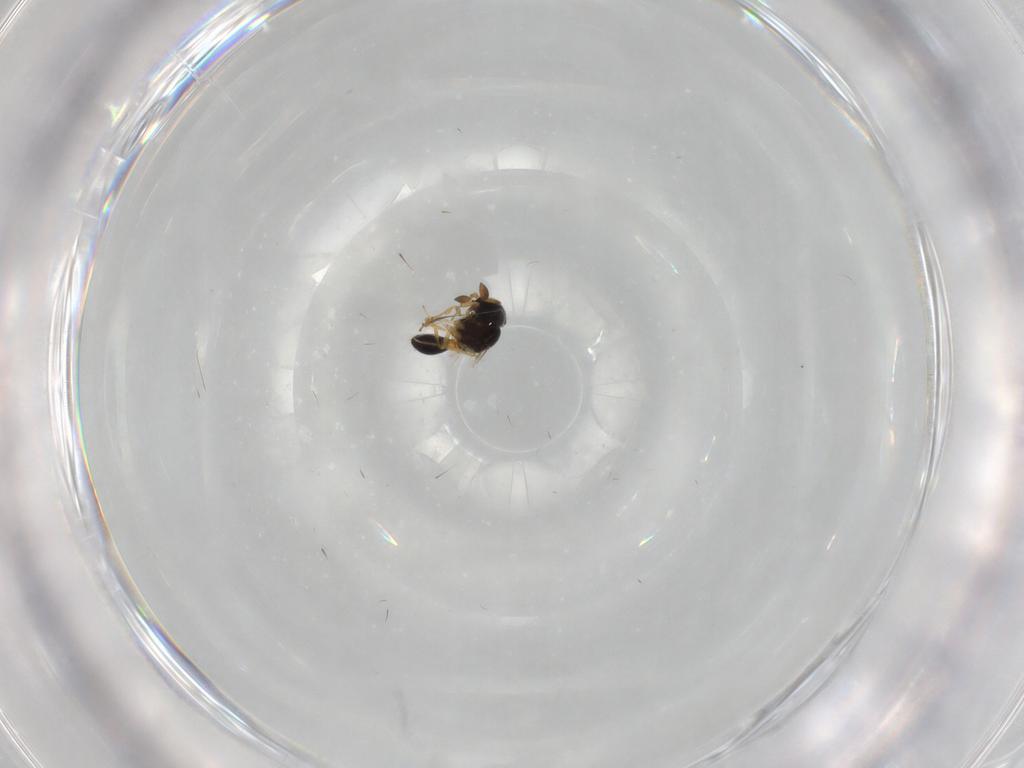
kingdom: Animalia
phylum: Arthropoda
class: Insecta
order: Hymenoptera
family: Scelionidae
